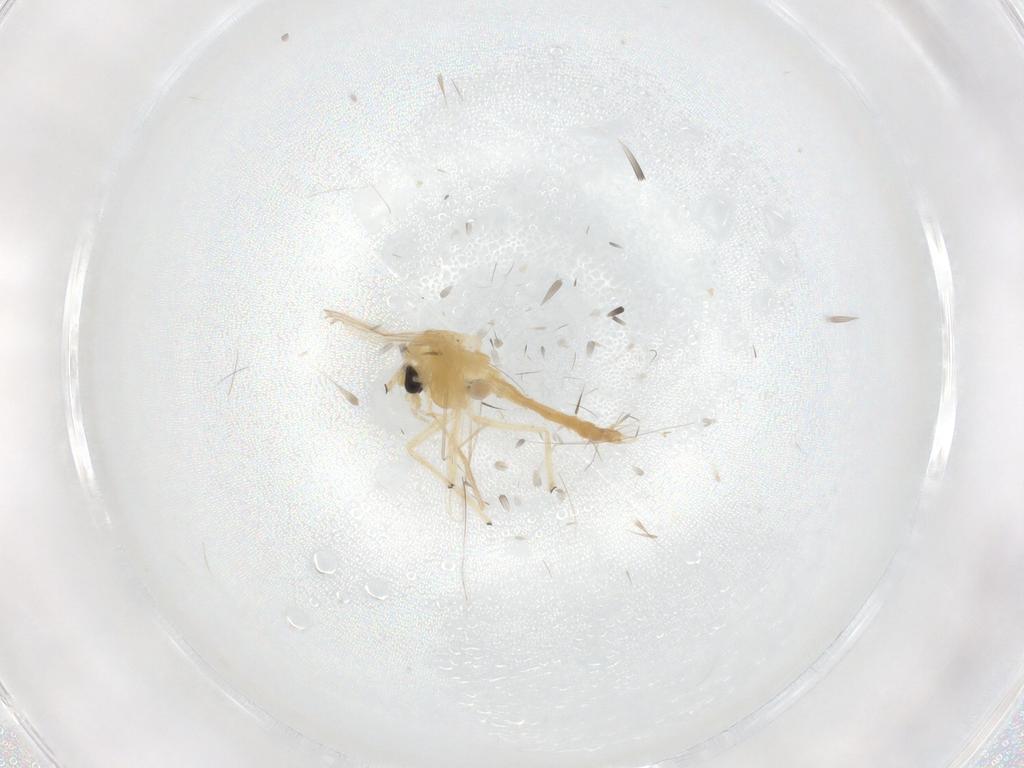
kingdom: Animalia
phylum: Arthropoda
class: Insecta
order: Diptera
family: Chironomidae
